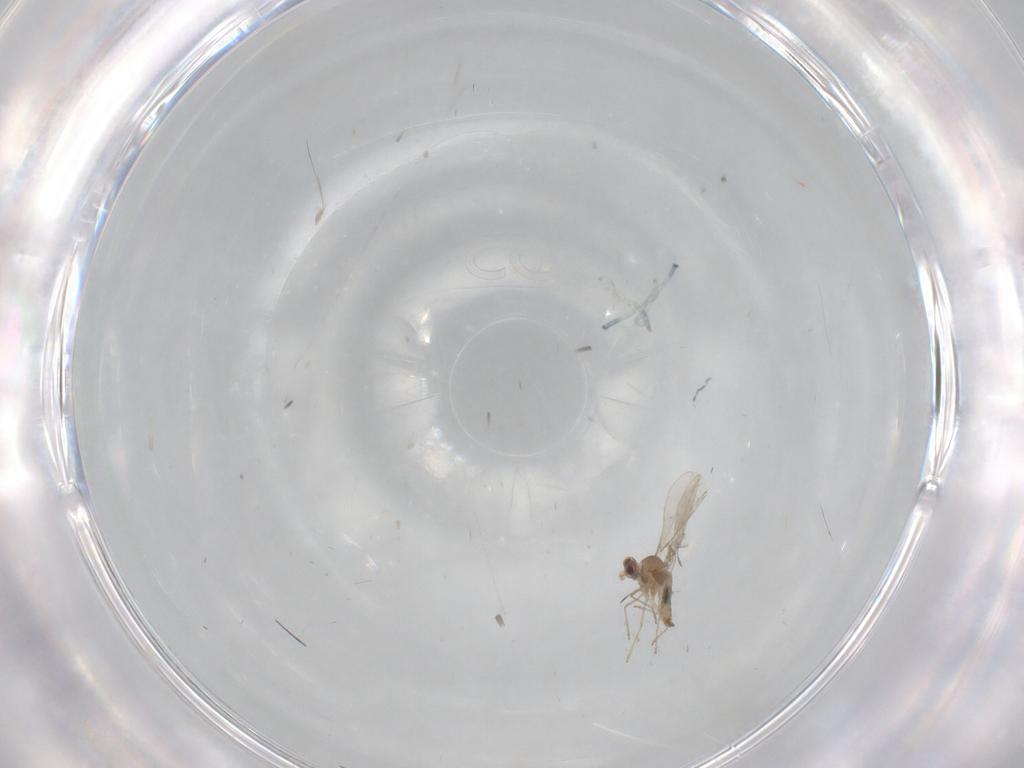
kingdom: Animalia
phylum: Arthropoda
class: Insecta
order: Diptera
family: Cecidomyiidae
